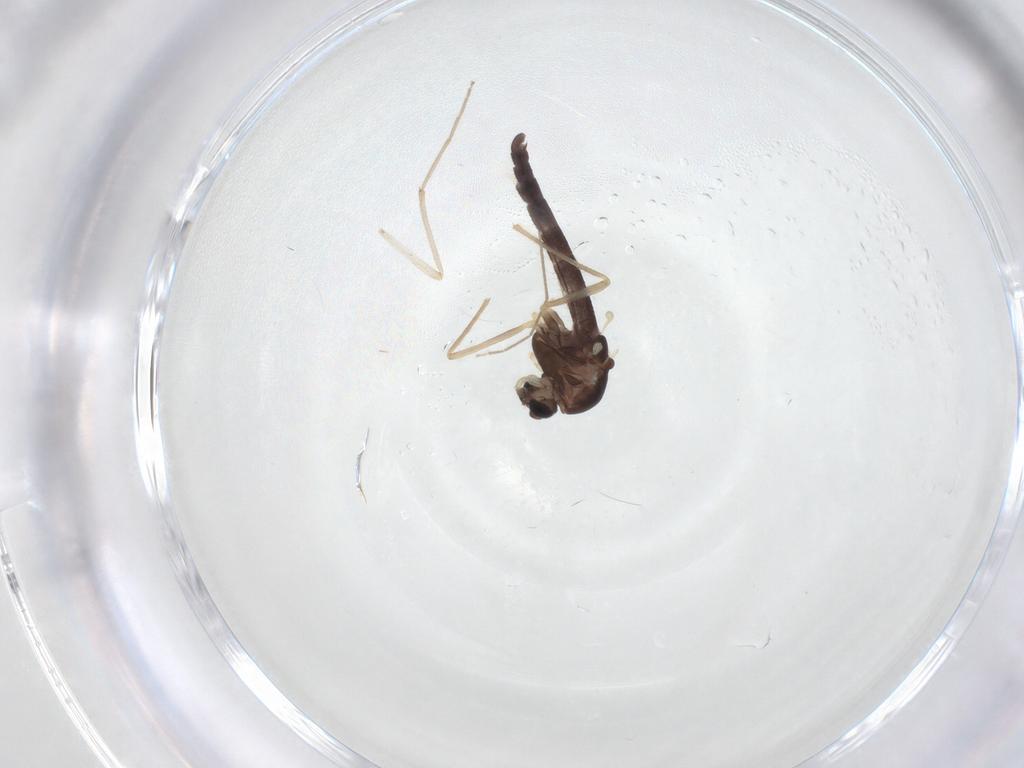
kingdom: Animalia
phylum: Arthropoda
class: Insecta
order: Diptera
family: Chironomidae
